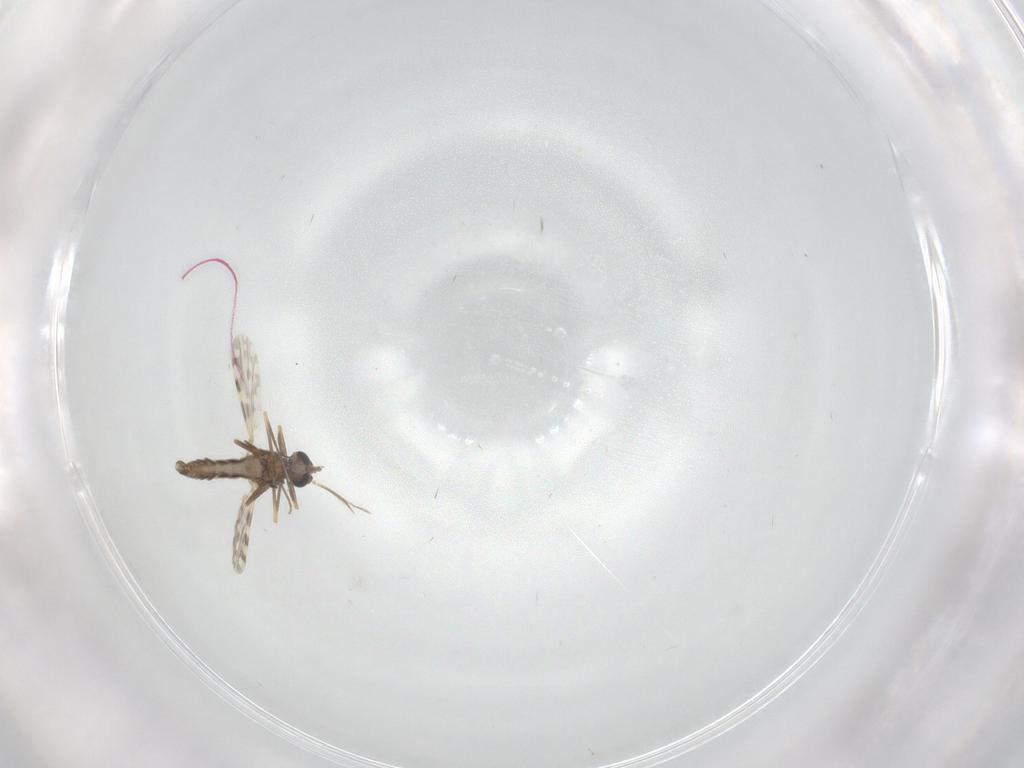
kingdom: Animalia
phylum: Arthropoda
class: Insecta
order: Diptera
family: Ceratopogonidae
